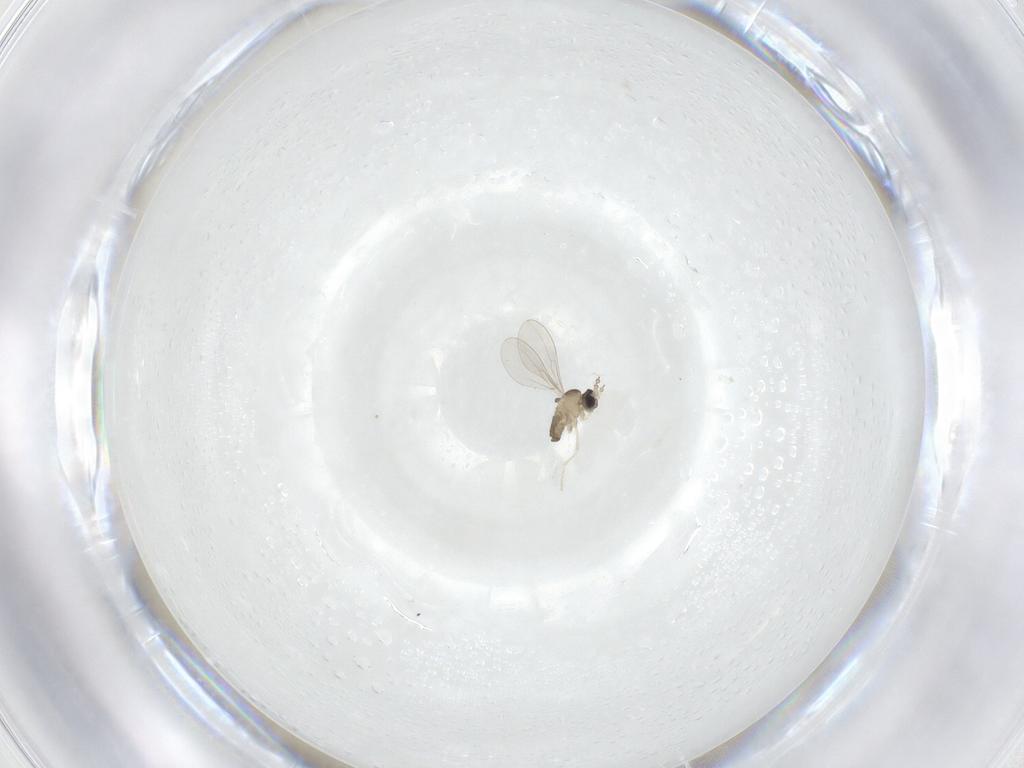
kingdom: Animalia
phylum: Arthropoda
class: Insecta
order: Diptera
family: Cecidomyiidae
